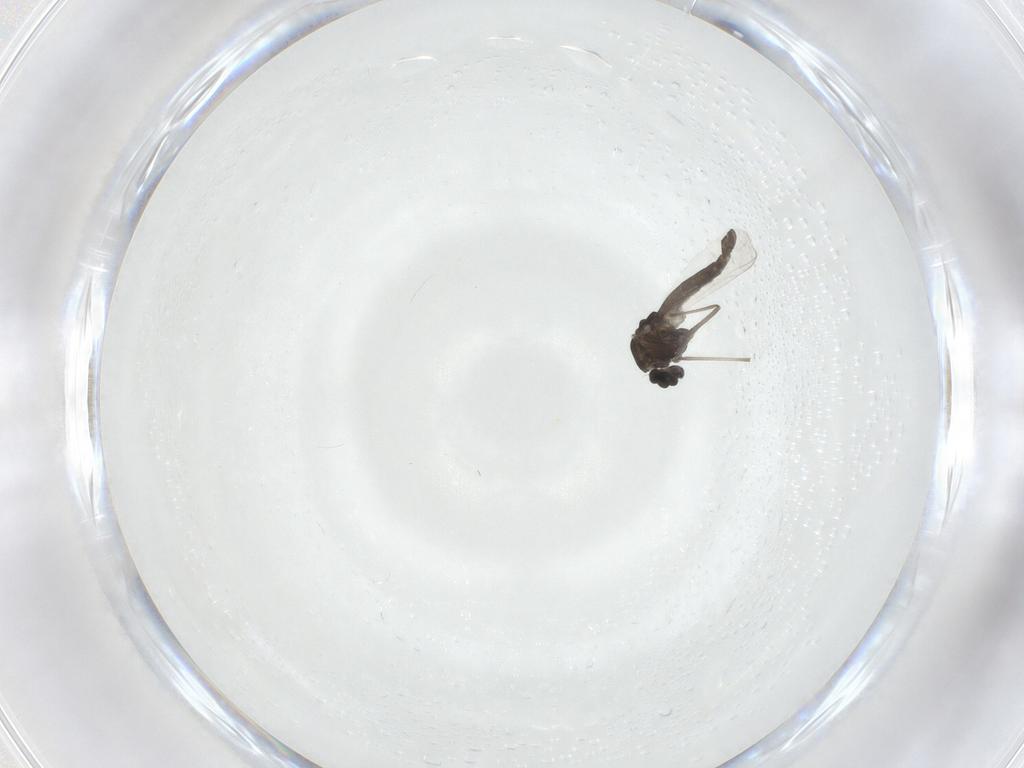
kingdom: Animalia
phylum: Arthropoda
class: Insecta
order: Diptera
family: Chironomidae
